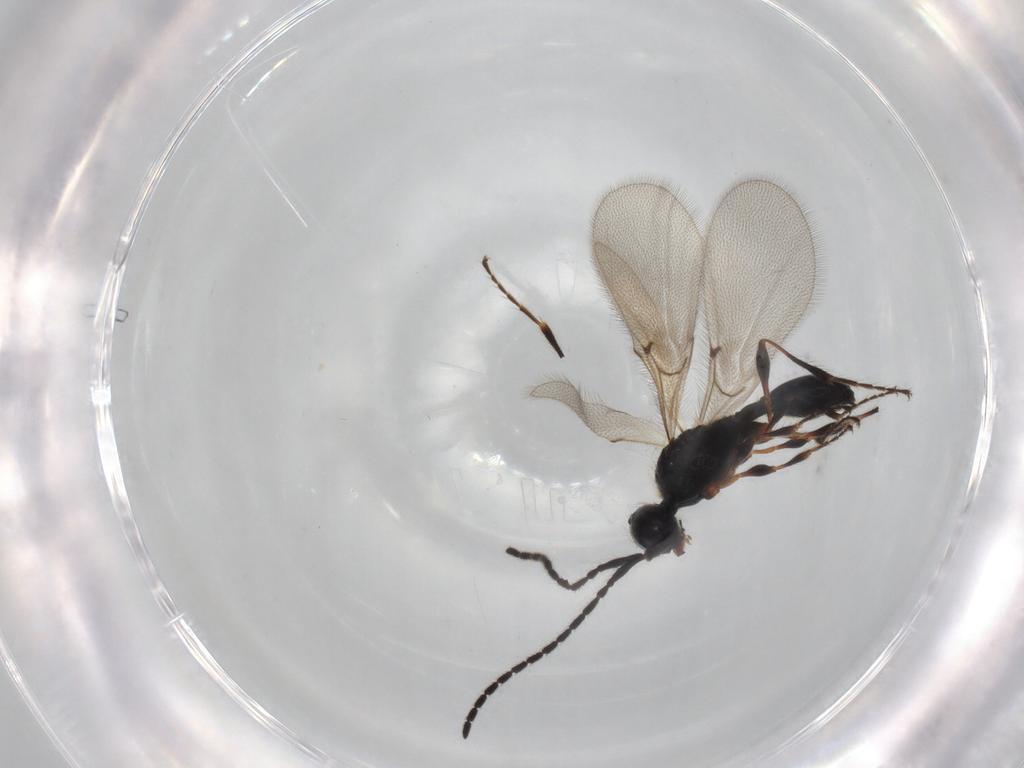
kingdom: Animalia
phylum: Arthropoda
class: Insecta
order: Hymenoptera
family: Diapriidae
